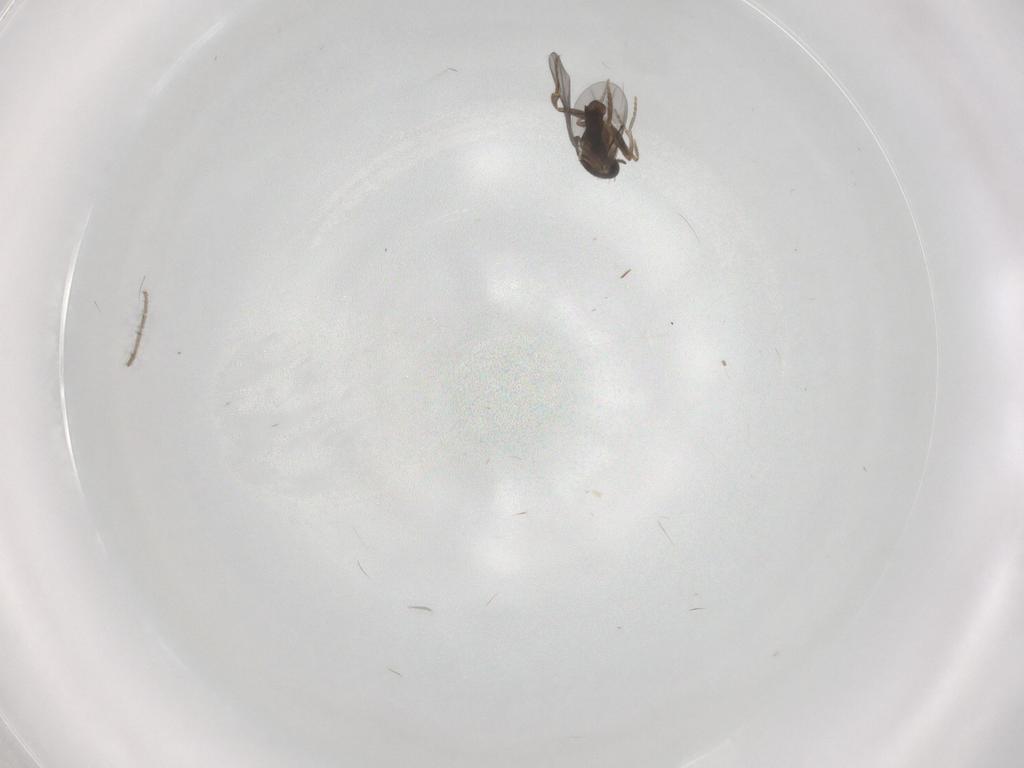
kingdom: Animalia
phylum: Arthropoda
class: Insecta
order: Diptera
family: Phoridae
